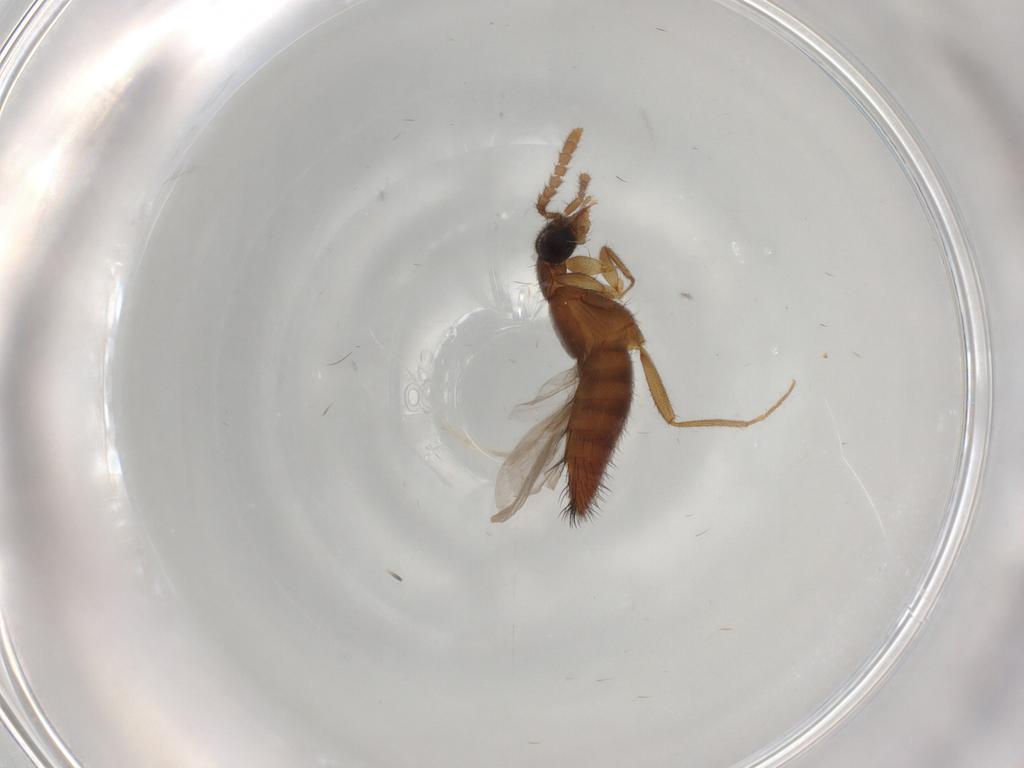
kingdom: Animalia
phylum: Arthropoda
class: Insecta
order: Coleoptera
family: Staphylinidae
